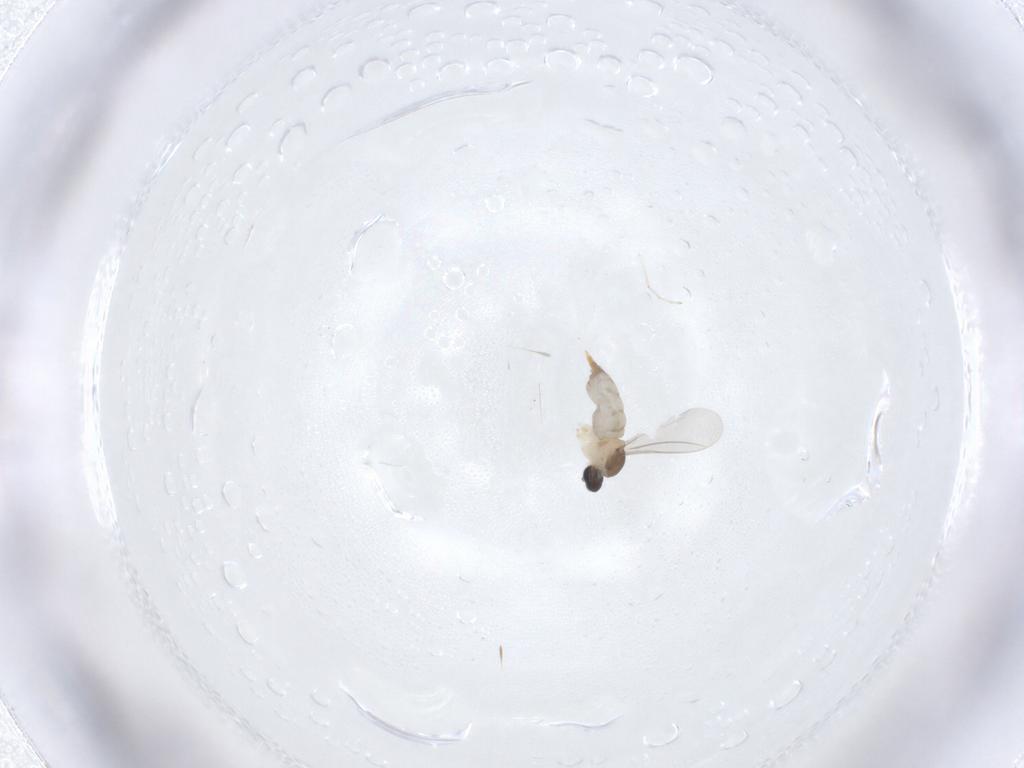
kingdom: Animalia
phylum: Arthropoda
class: Insecta
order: Diptera
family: Cecidomyiidae
